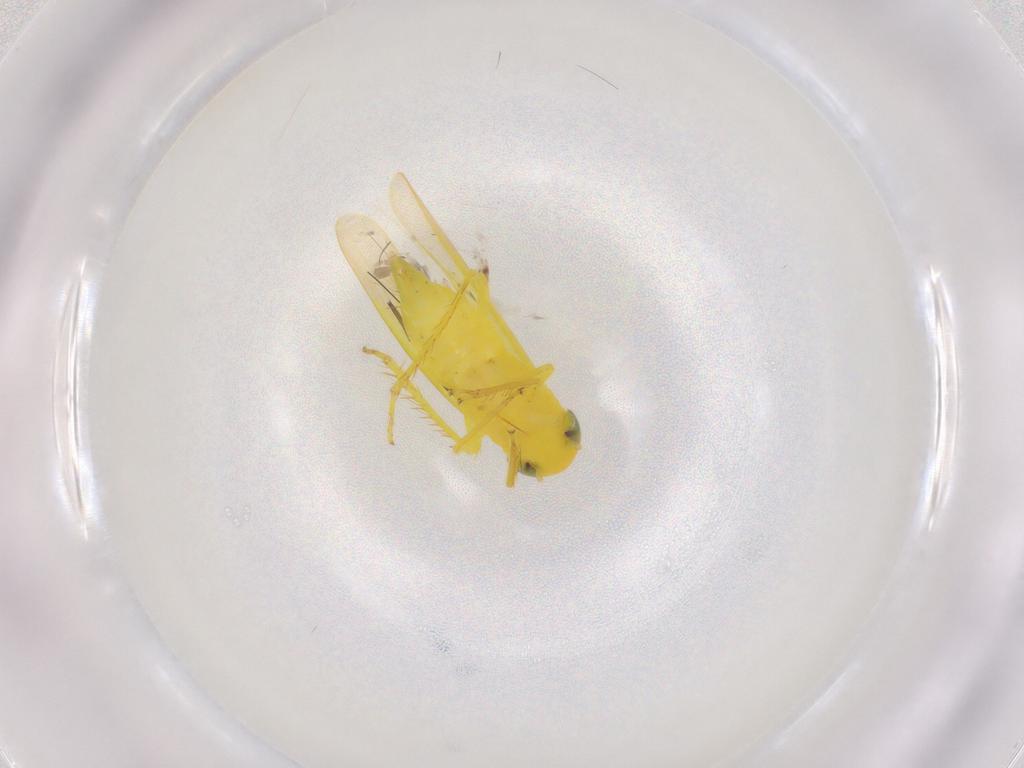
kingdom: Animalia
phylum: Arthropoda
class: Insecta
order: Hemiptera
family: Cicadellidae
